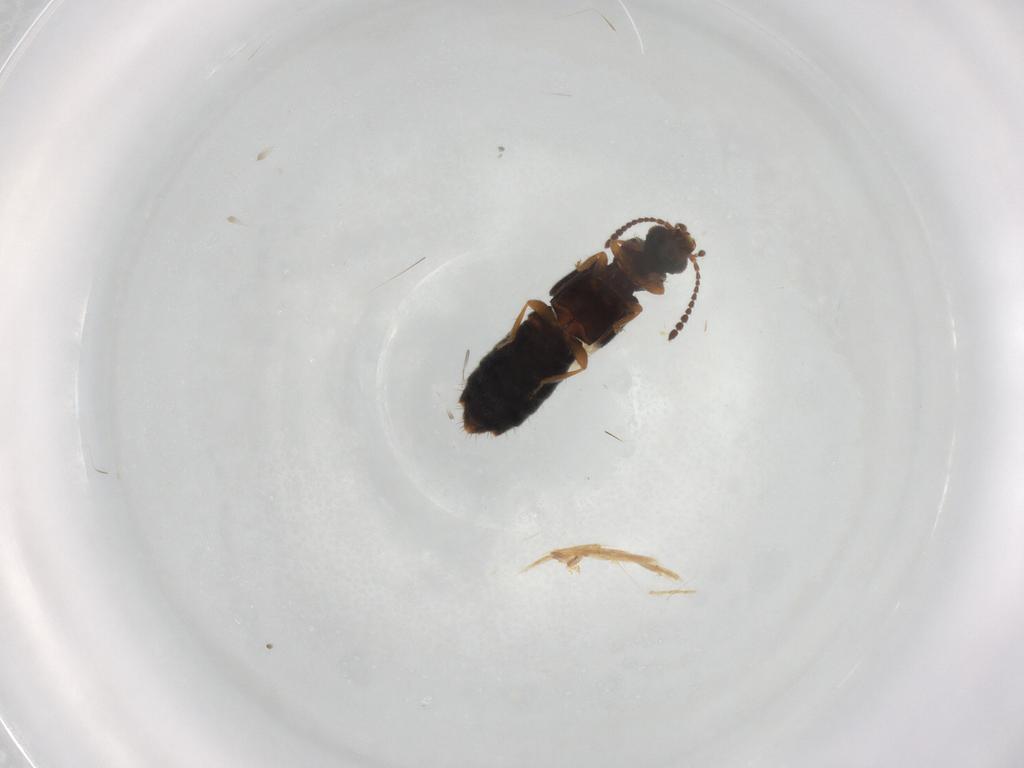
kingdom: Animalia
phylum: Arthropoda
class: Insecta
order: Coleoptera
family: Staphylinidae
